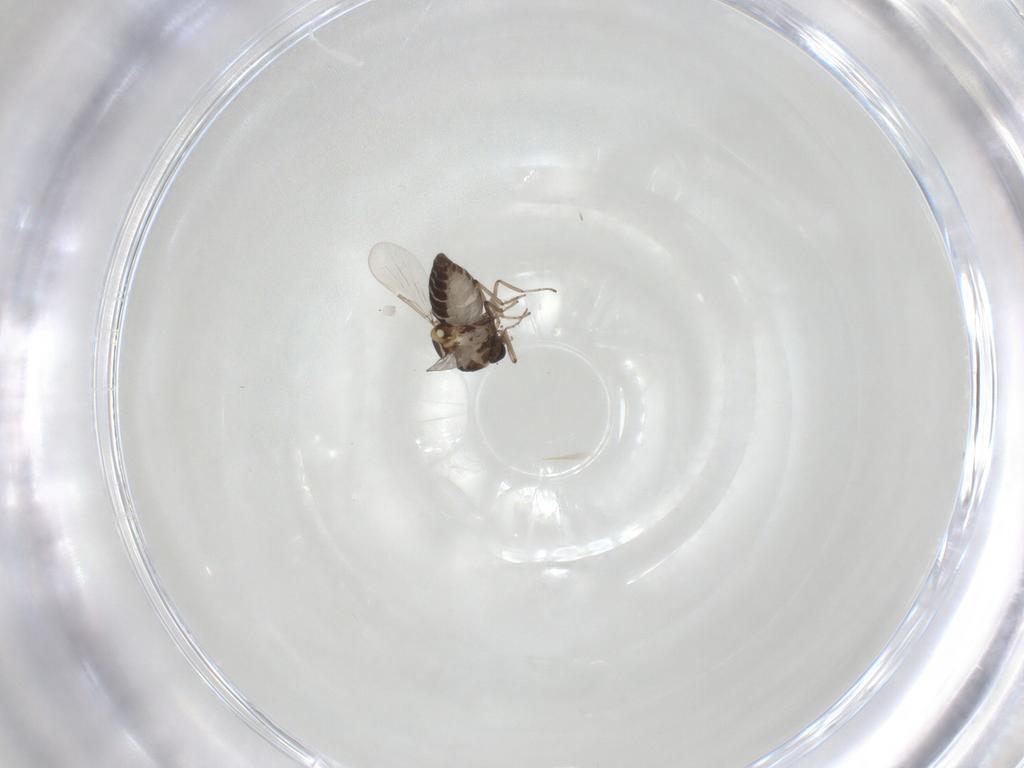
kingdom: Animalia
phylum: Arthropoda
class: Insecta
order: Diptera
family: Ceratopogonidae
